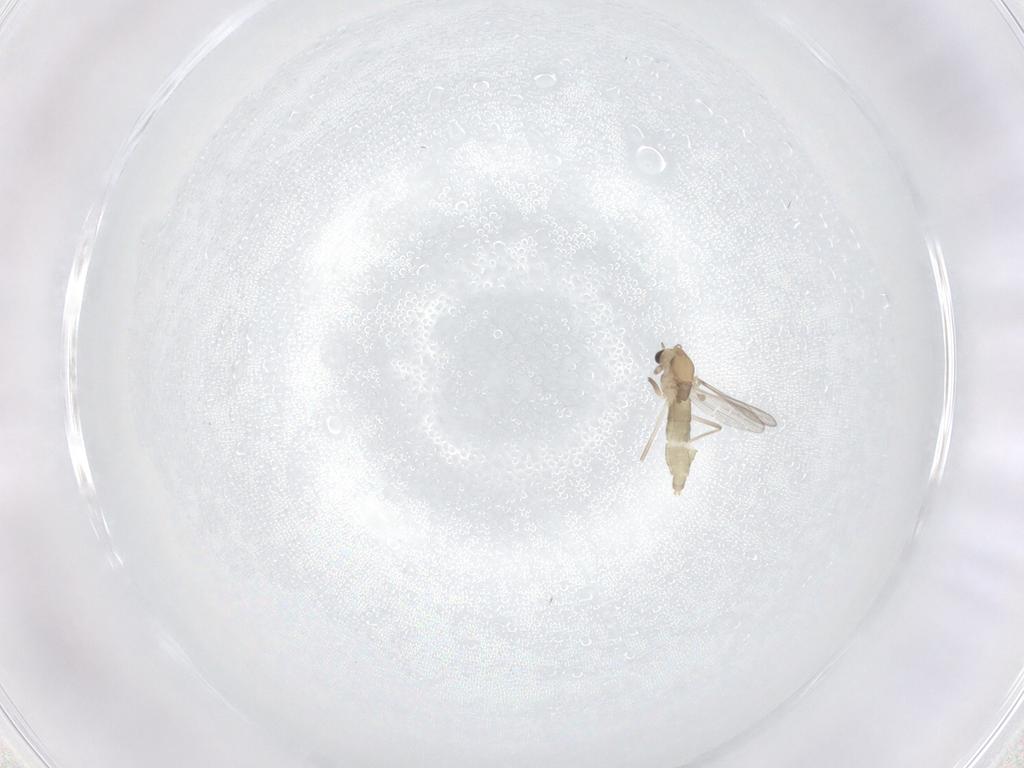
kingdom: Animalia
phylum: Arthropoda
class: Insecta
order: Diptera
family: Chironomidae
